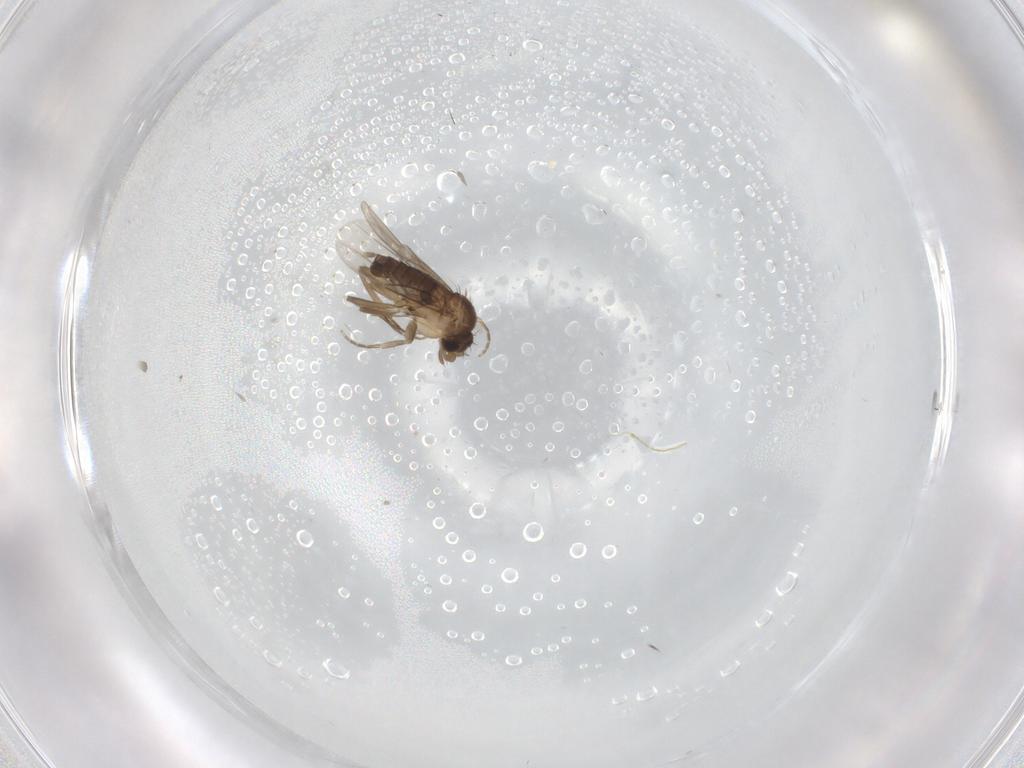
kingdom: Animalia
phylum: Arthropoda
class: Insecta
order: Diptera
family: Phoridae
